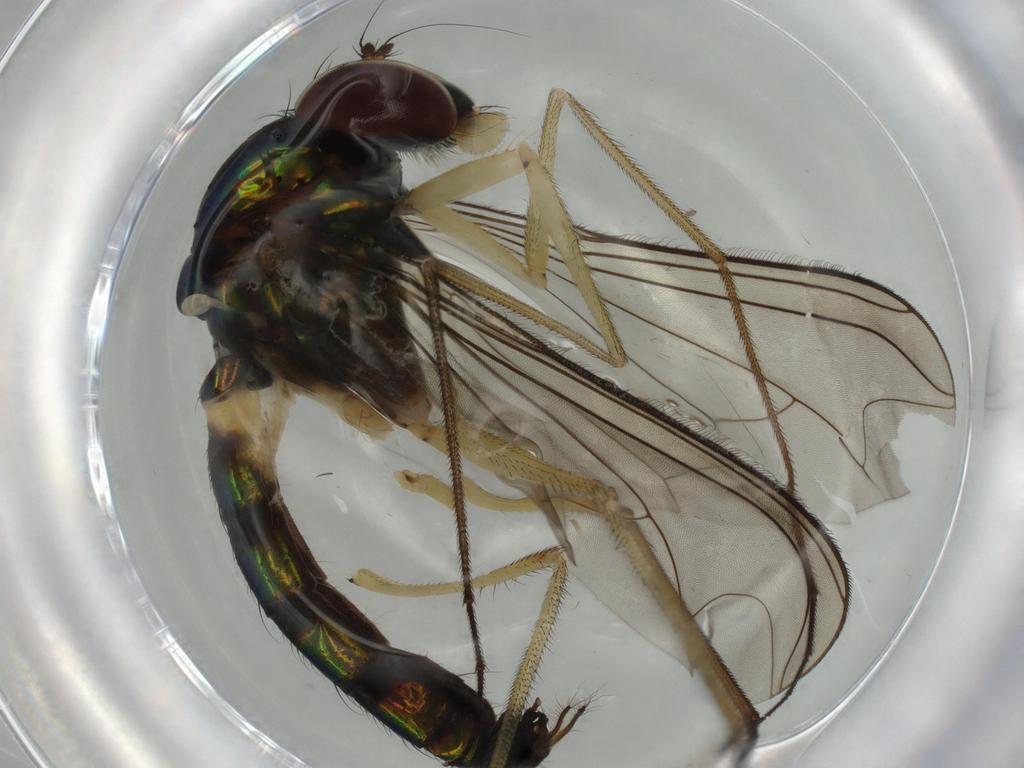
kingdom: Animalia
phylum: Arthropoda
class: Insecta
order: Diptera
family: Dolichopodidae
